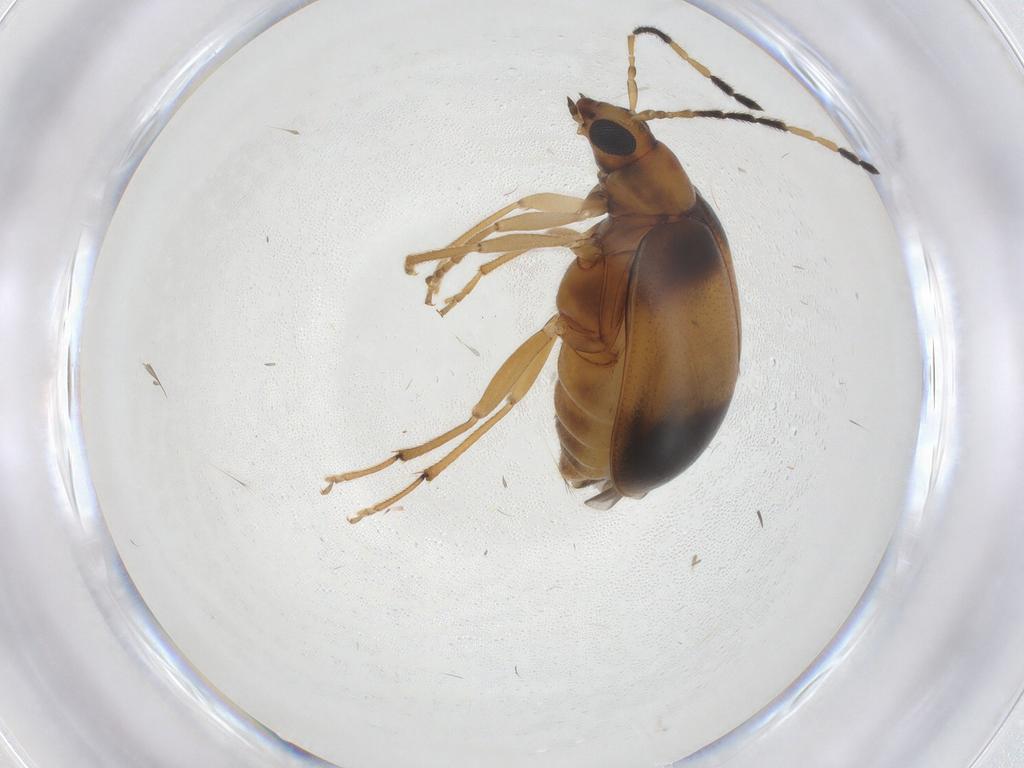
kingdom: Animalia
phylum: Arthropoda
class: Insecta
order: Coleoptera
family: Chrysomelidae
